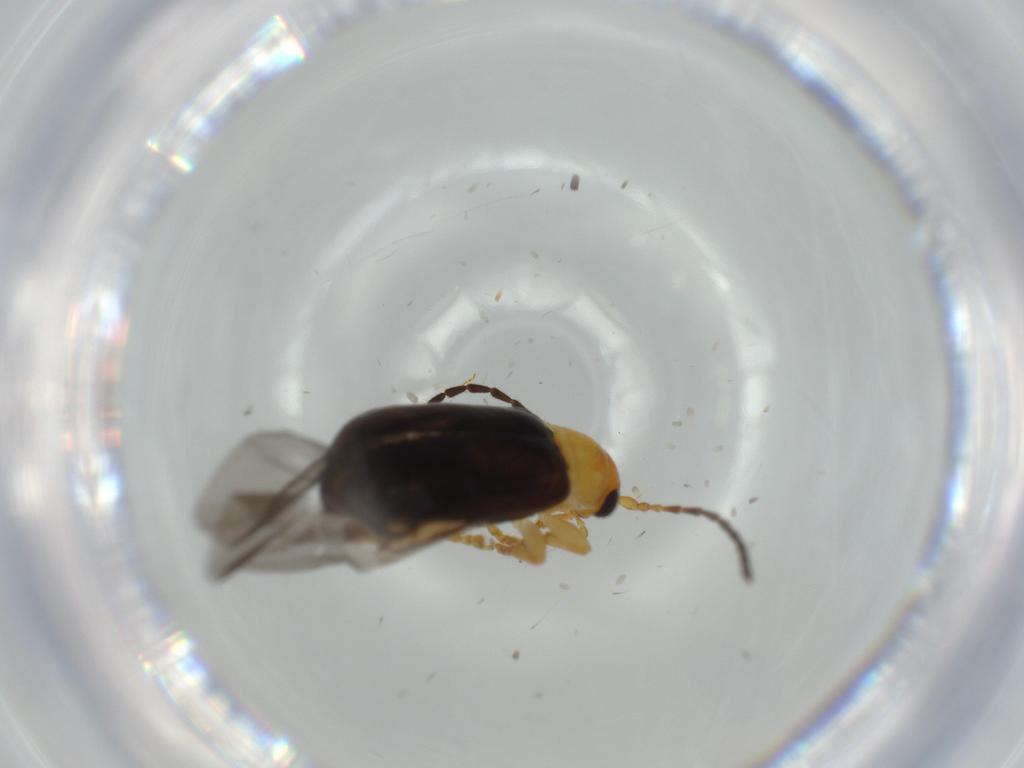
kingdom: Animalia
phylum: Arthropoda
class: Insecta
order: Coleoptera
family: Chrysomelidae
